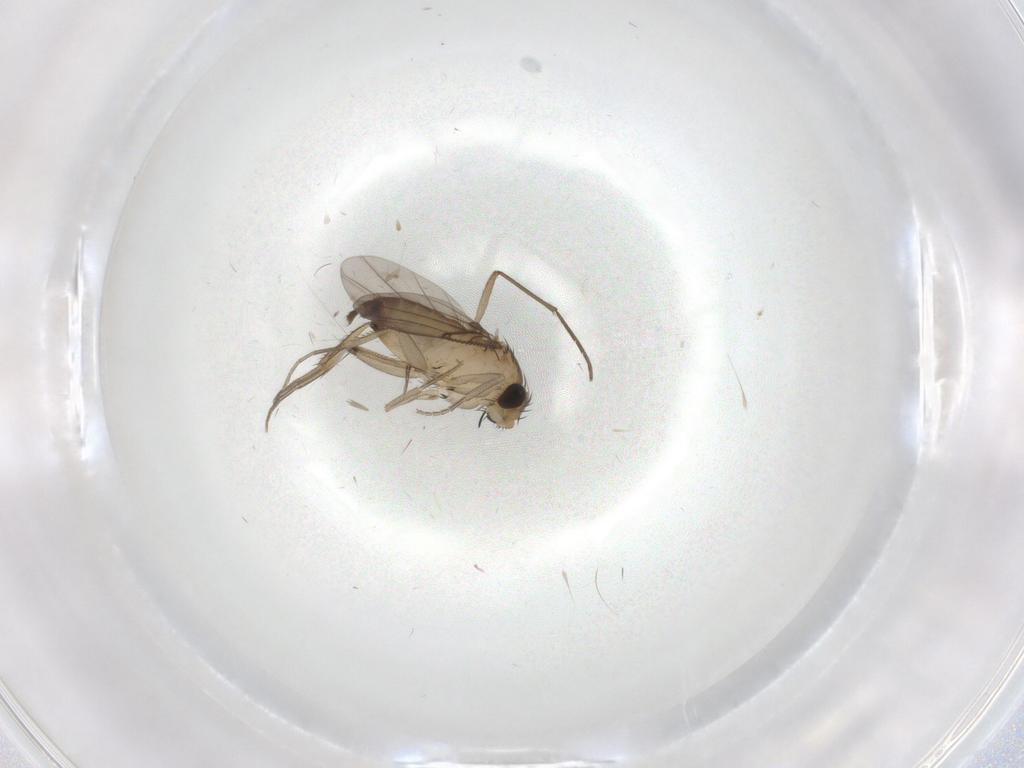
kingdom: Animalia
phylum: Arthropoda
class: Insecta
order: Diptera
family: Phoridae
